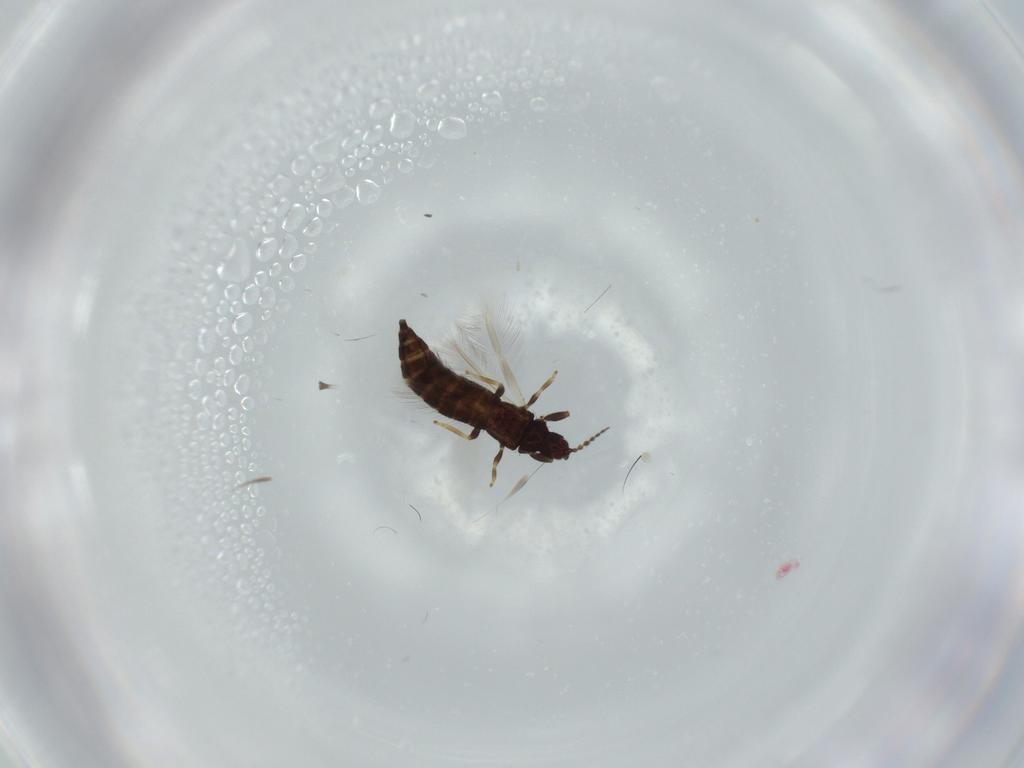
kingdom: Animalia
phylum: Arthropoda
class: Insecta
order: Thysanoptera
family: Phlaeothripidae
